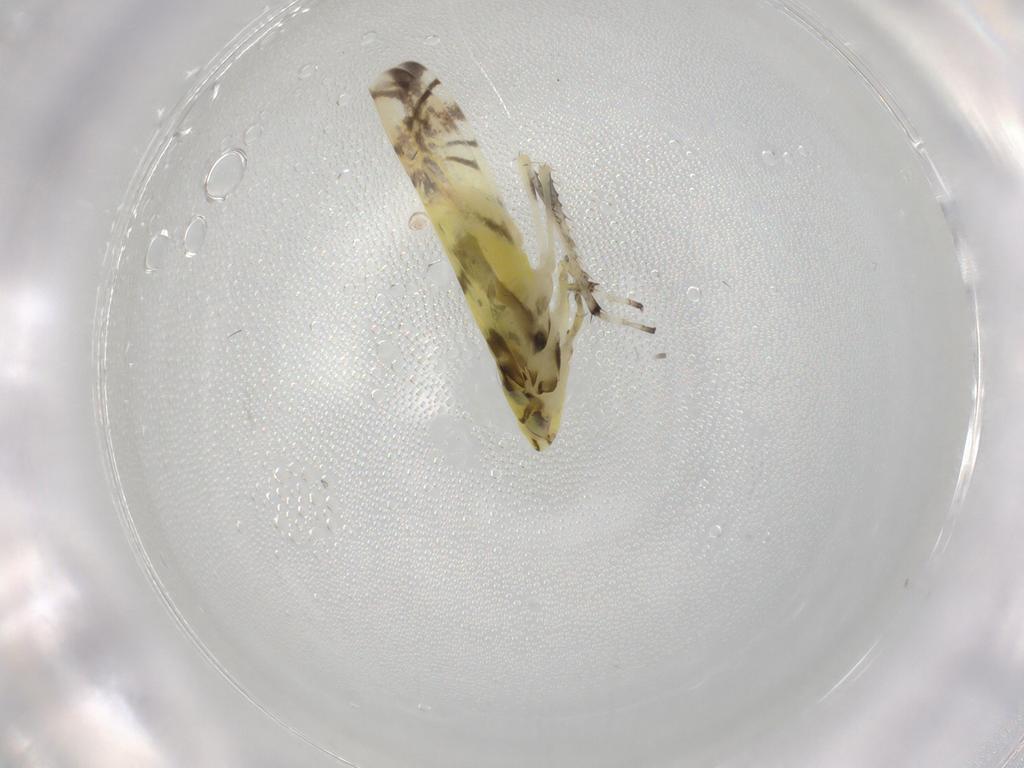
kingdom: Animalia
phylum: Arthropoda
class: Insecta
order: Hemiptera
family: Cicadellidae
